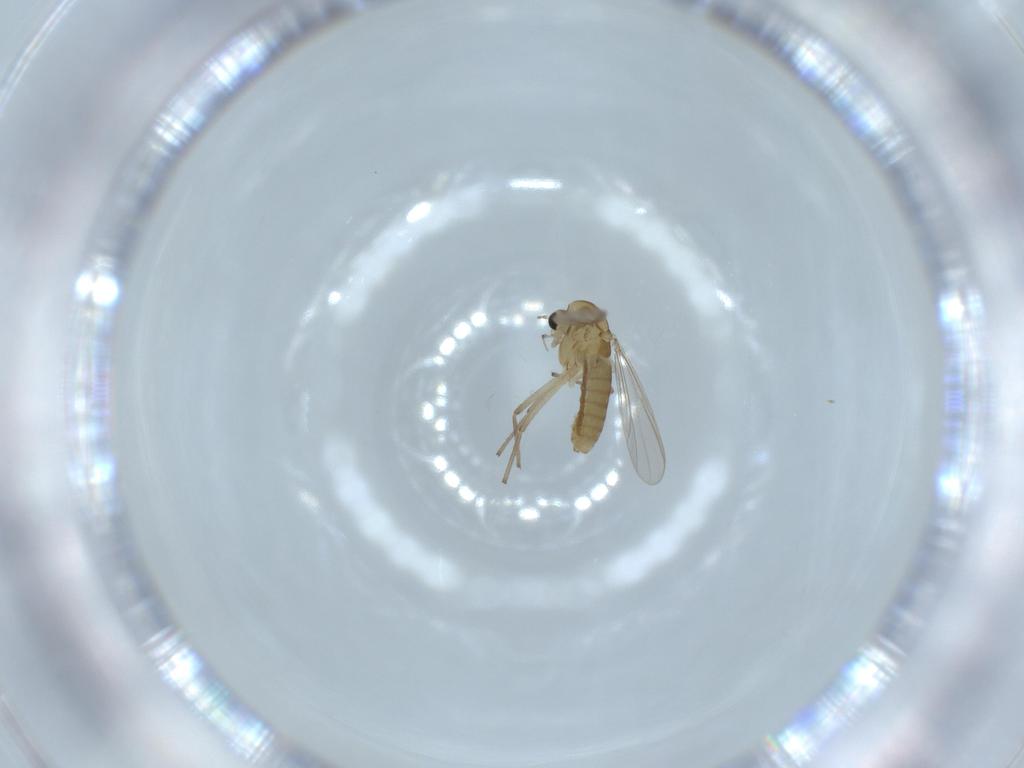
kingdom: Animalia
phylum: Arthropoda
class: Insecta
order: Diptera
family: Chironomidae
